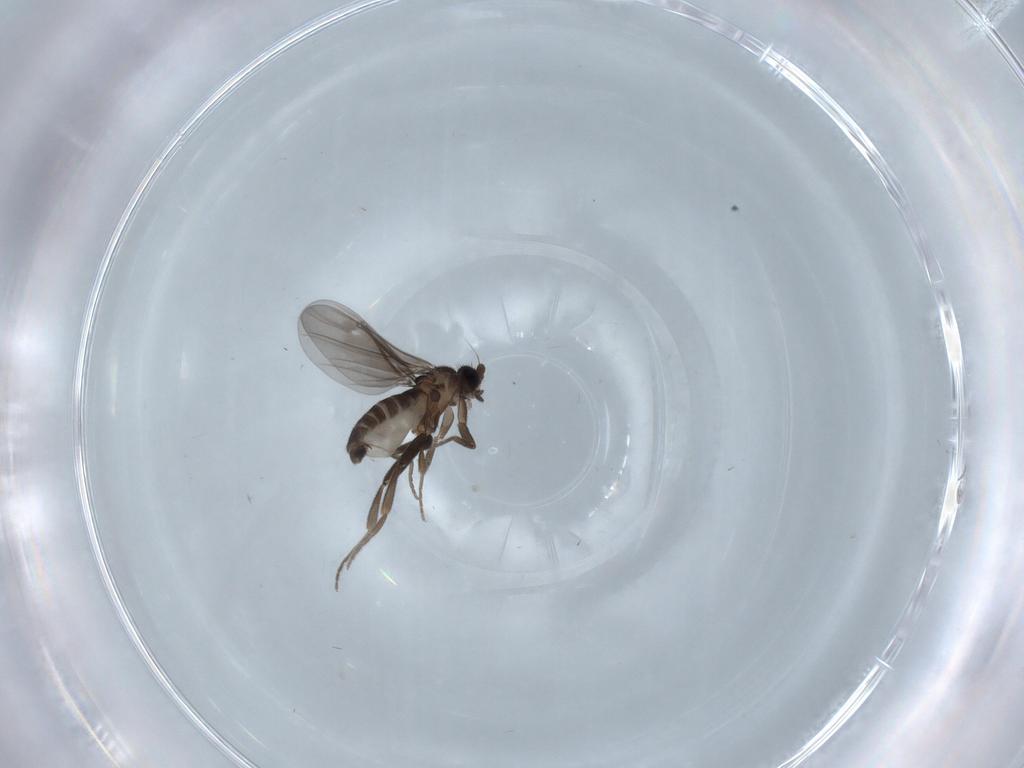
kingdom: Animalia
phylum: Arthropoda
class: Insecta
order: Diptera
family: Phoridae
